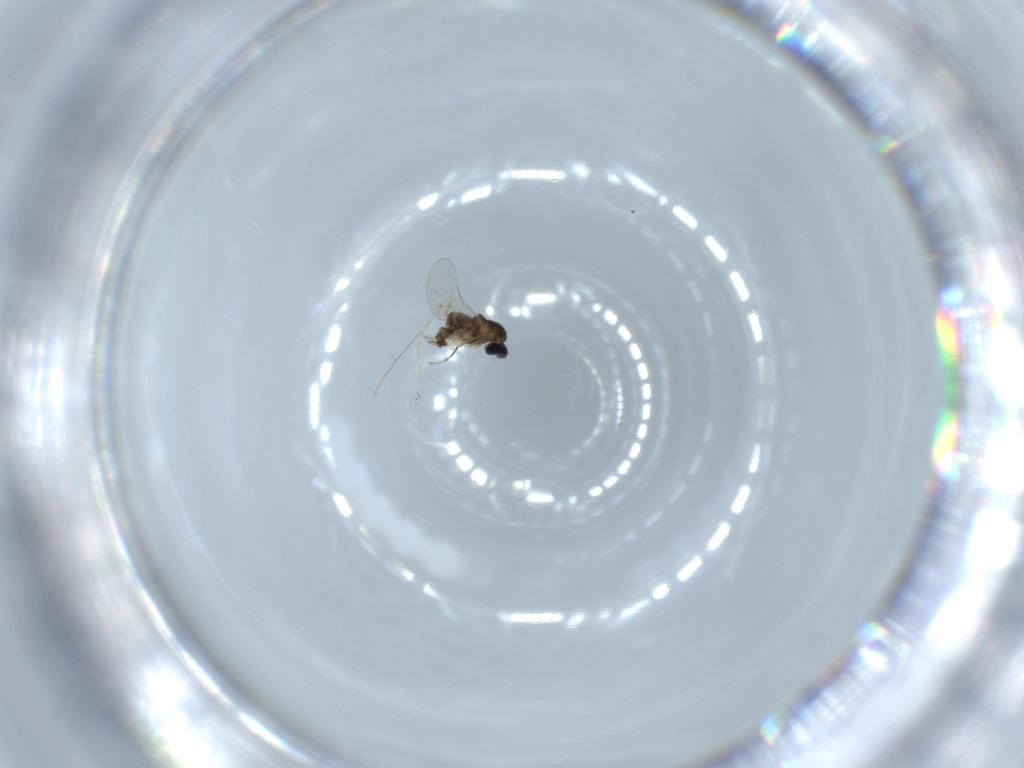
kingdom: Animalia
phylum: Arthropoda
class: Insecta
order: Diptera
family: Cecidomyiidae
